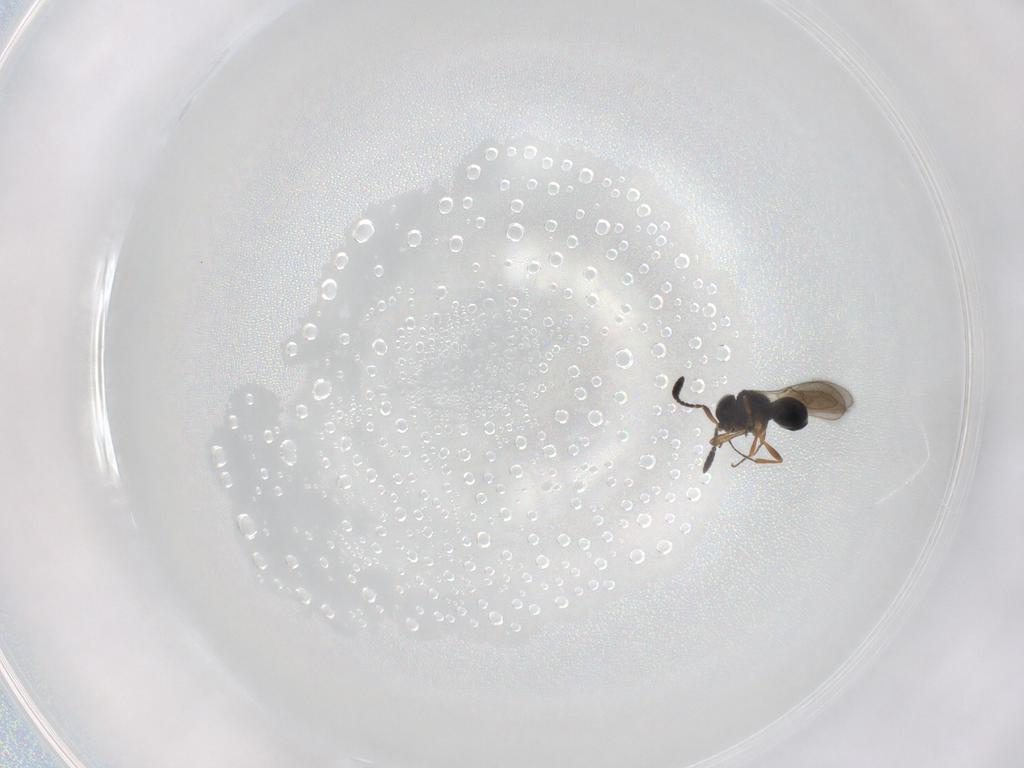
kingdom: Animalia
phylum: Arthropoda
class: Insecta
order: Hymenoptera
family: Scelionidae
